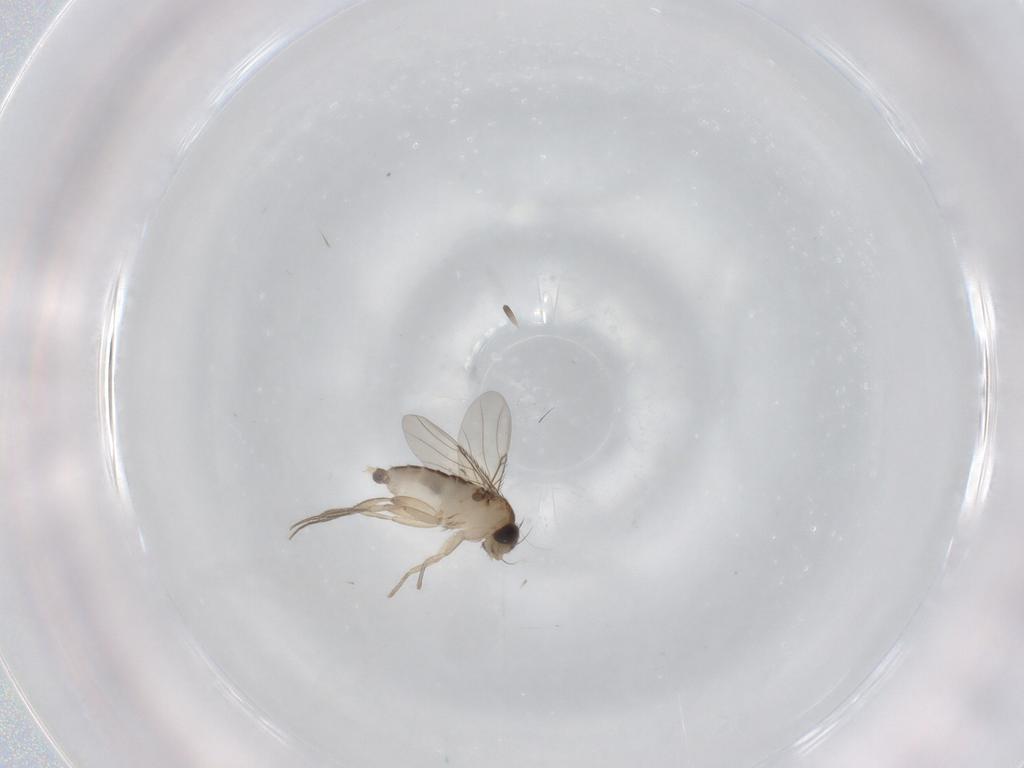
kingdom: Animalia
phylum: Arthropoda
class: Insecta
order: Diptera
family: Phoridae
